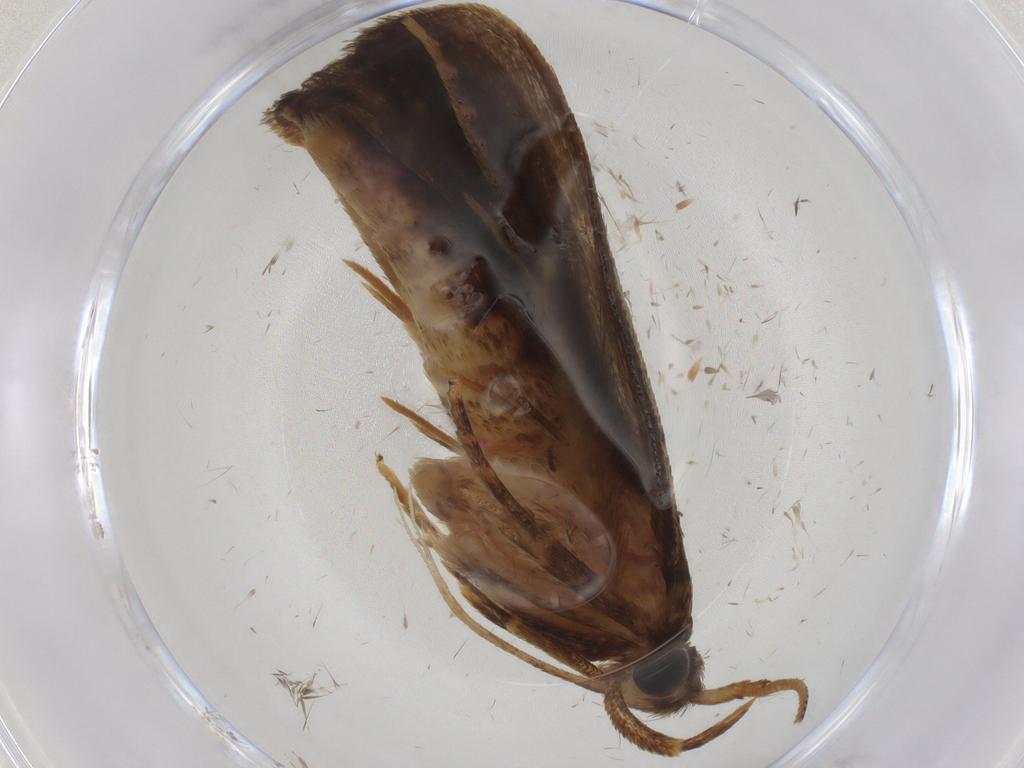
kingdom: Animalia
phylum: Arthropoda
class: Insecta
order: Lepidoptera
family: Autostichidae
